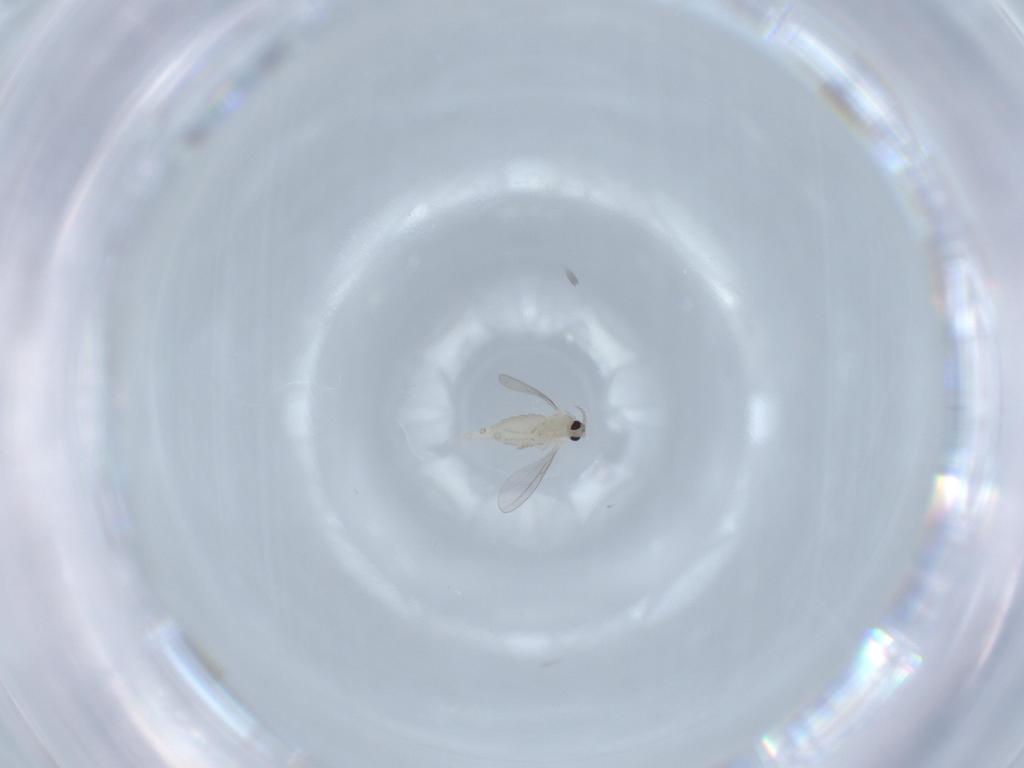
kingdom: Animalia
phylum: Arthropoda
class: Insecta
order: Diptera
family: Cecidomyiidae
